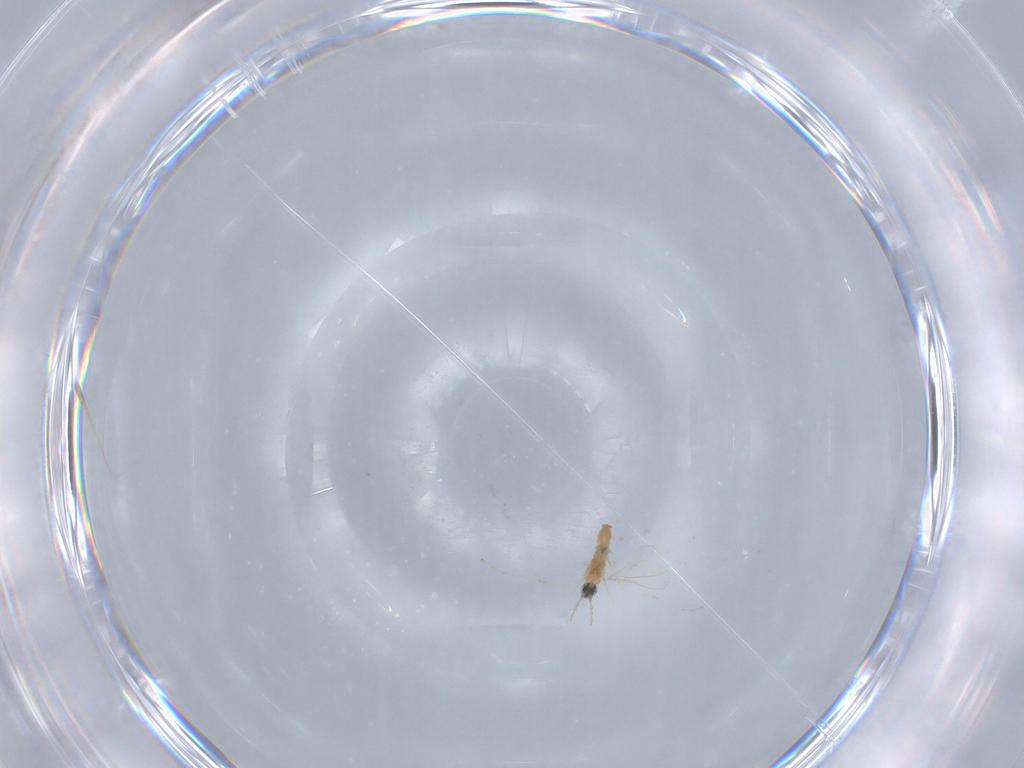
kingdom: Animalia
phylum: Arthropoda
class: Insecta
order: Diptera
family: Cecidomyiidae
